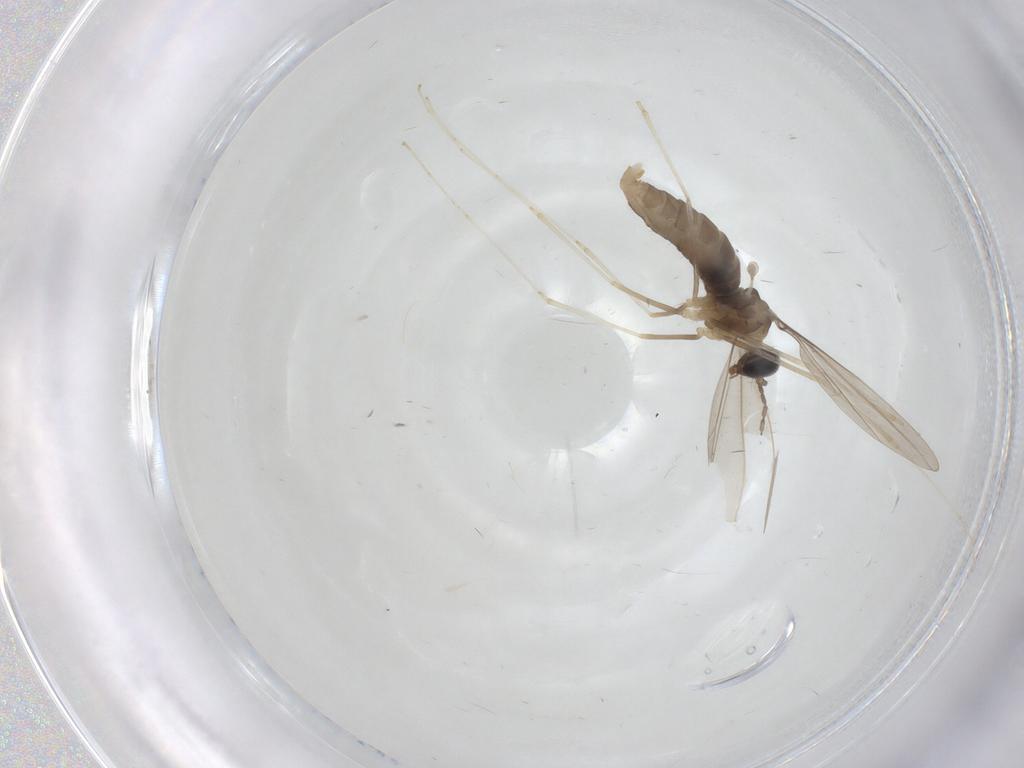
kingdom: Animalia
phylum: Arthropoda
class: Insecta
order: Diptera
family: Cecidomyiidae
